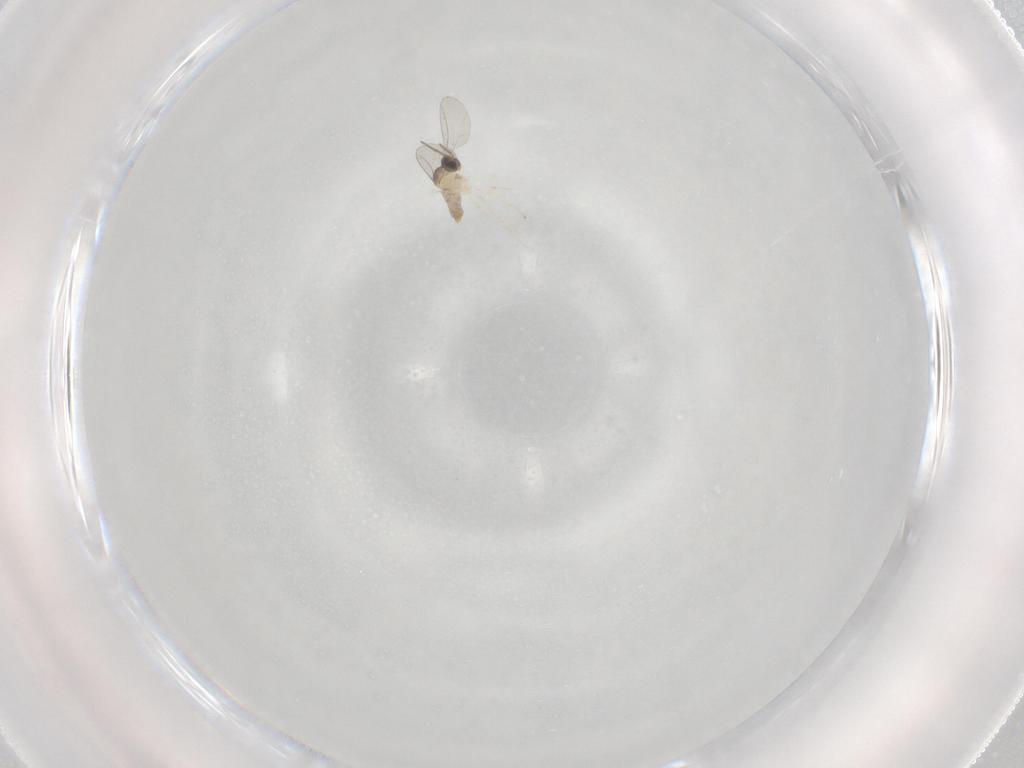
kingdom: Animalia
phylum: Arthropoda
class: Insecta
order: Diptera
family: Cecidomyiidae
